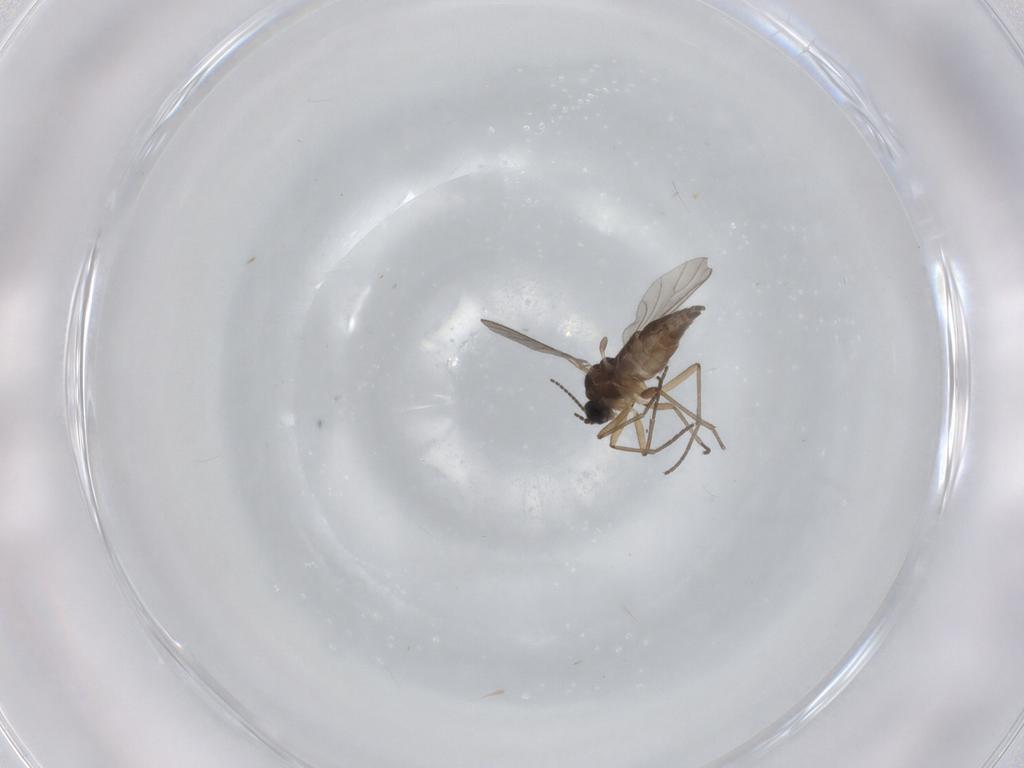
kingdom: Animalia
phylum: Arthropoda
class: Insecta
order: Diptera
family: Sciaridae
